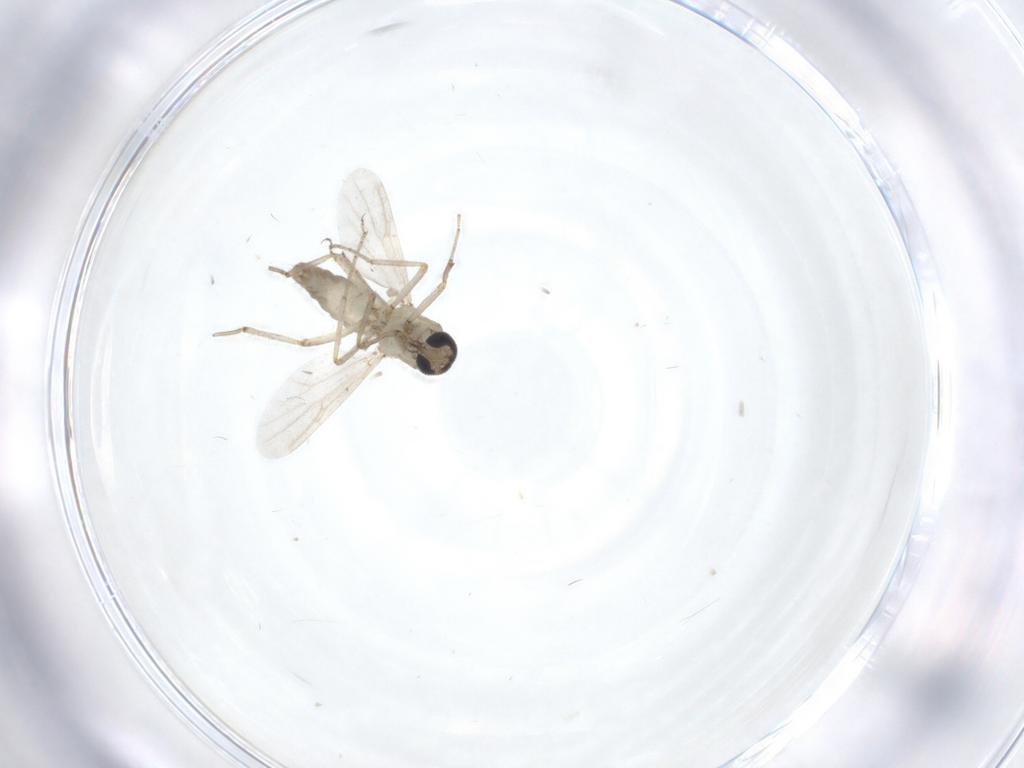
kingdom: Animalia
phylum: Arthropoda
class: Insecta
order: Diptera
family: Ceratopogonidae
